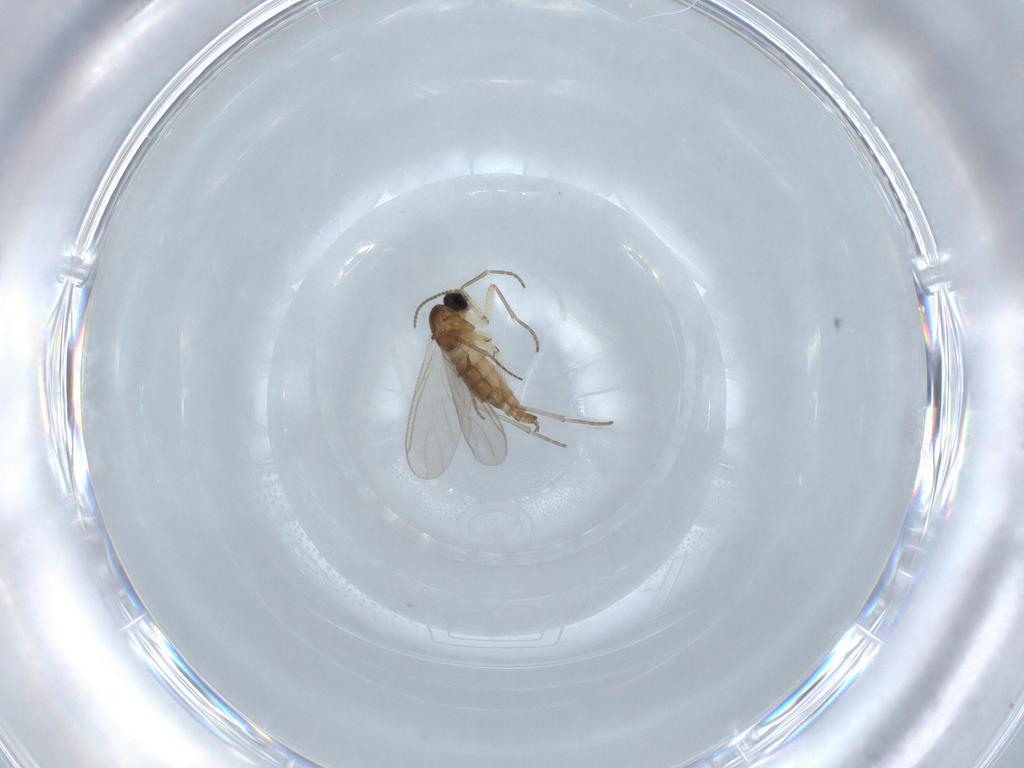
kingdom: Animalia
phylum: Arthropoda
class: Insecta
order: Diptera
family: Sciaridae
